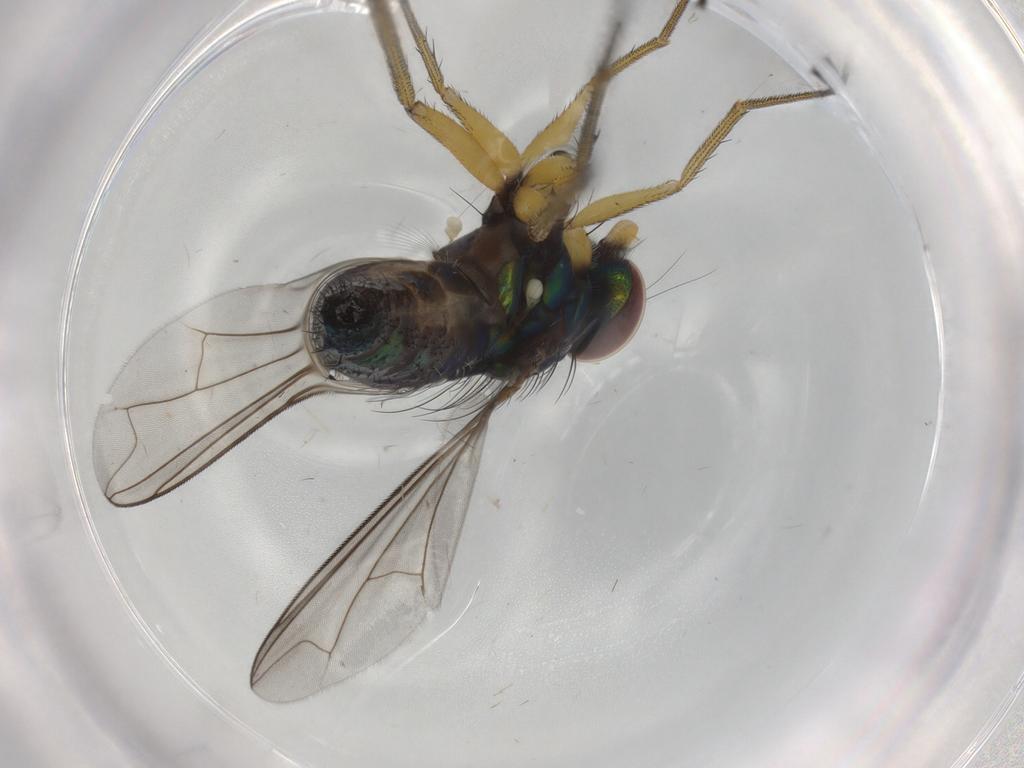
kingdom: Animalia
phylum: Arthropoda
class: Insecta
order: Diptera
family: Dolichopodidae
